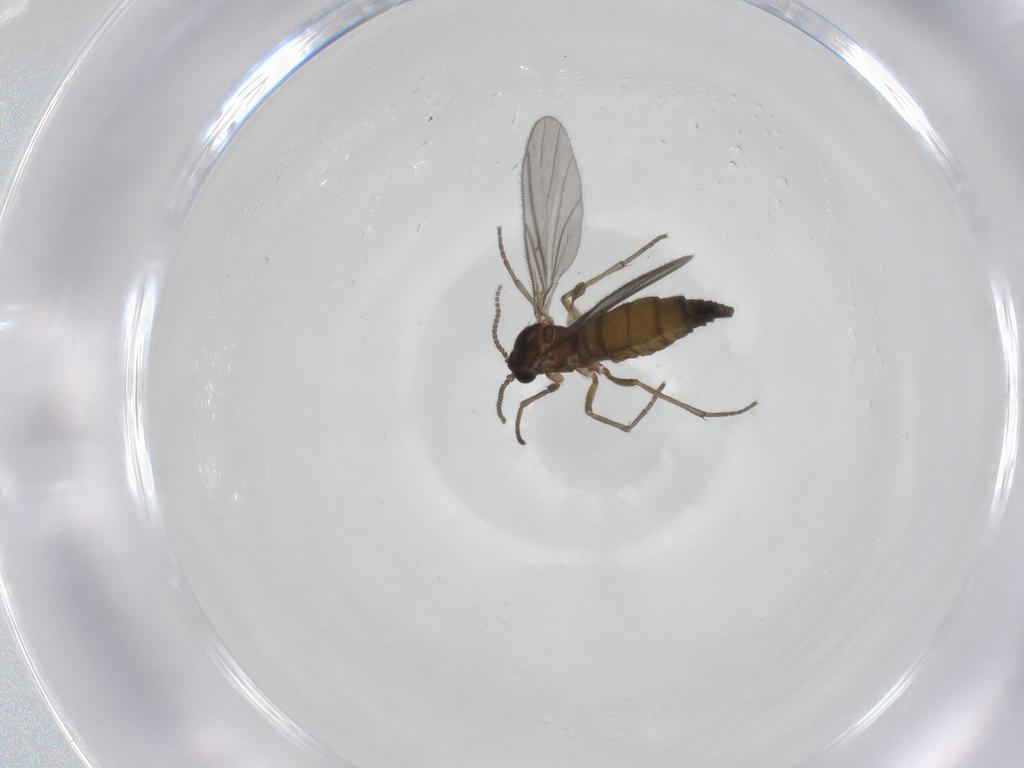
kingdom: Animalia
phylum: Arthropoda
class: Insecta
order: Diptera
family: Sciaridae
